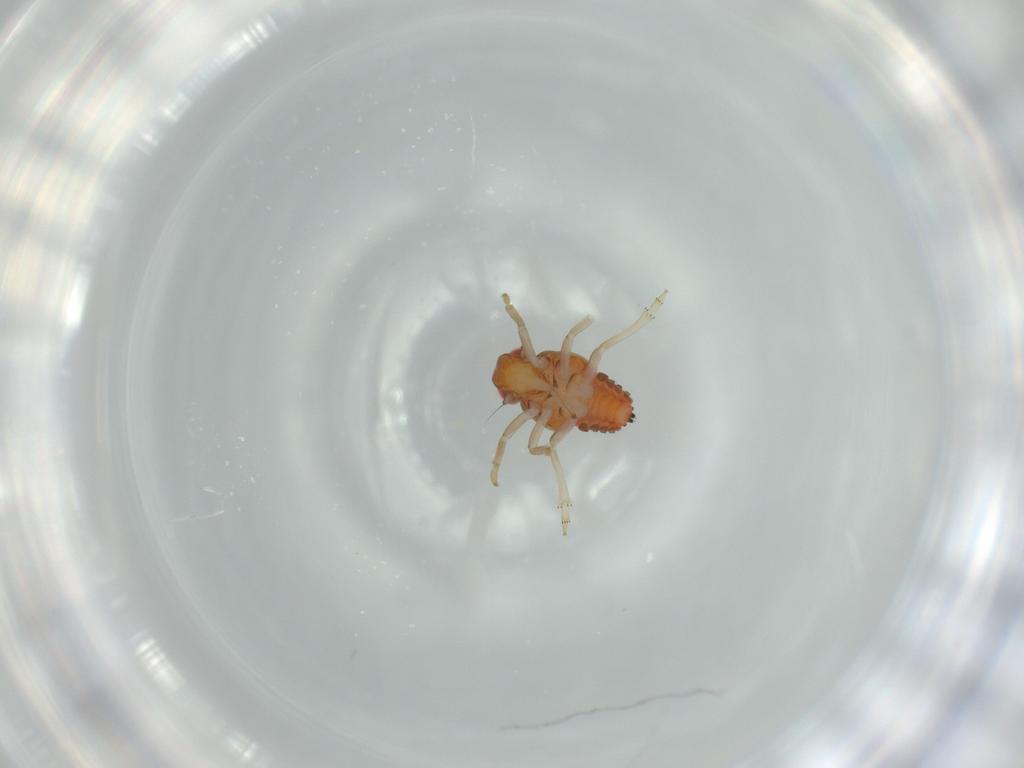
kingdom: Animalia
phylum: Arthropoda
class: Insecta
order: Hemiptera
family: Issidae
